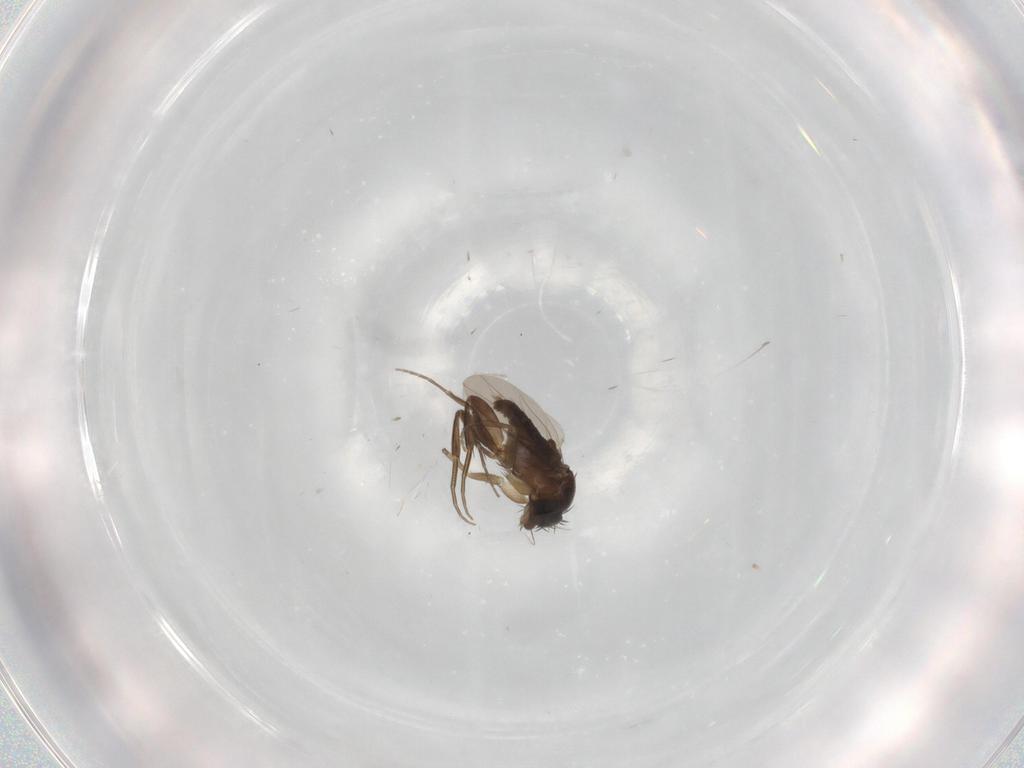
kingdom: Animalia
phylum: Arthropoda
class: Insecta
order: Diptera
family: Phoridae
